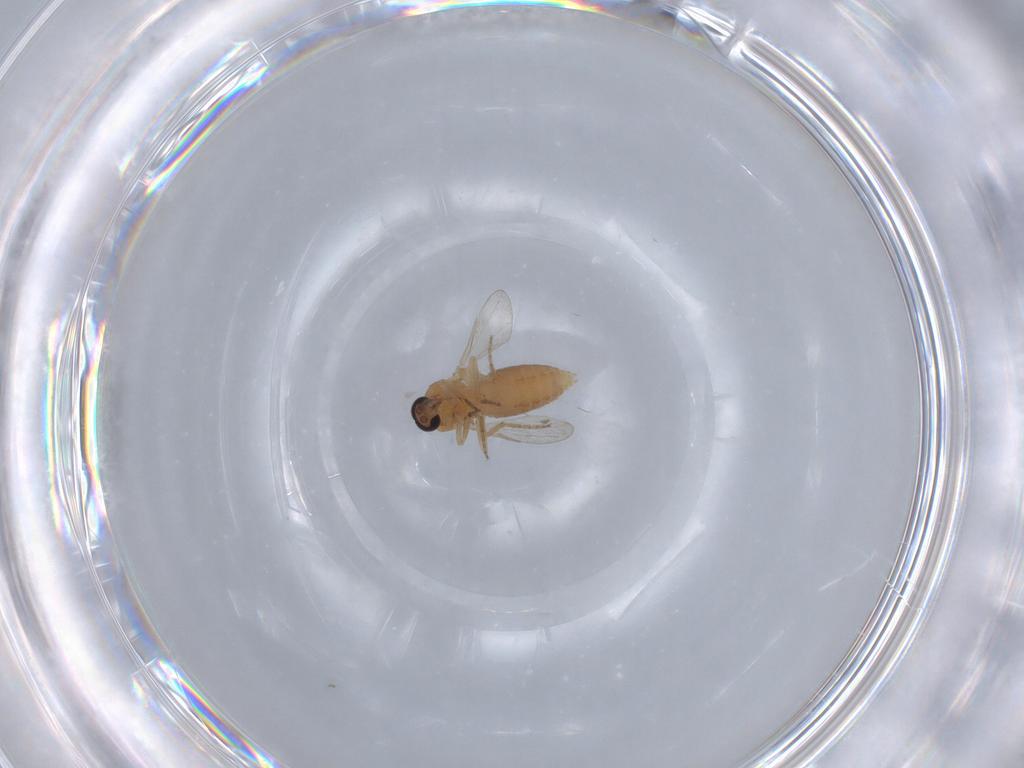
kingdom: Animalia
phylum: Arthropoda
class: Insecta
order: Diptera
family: Ceratopogonidae
